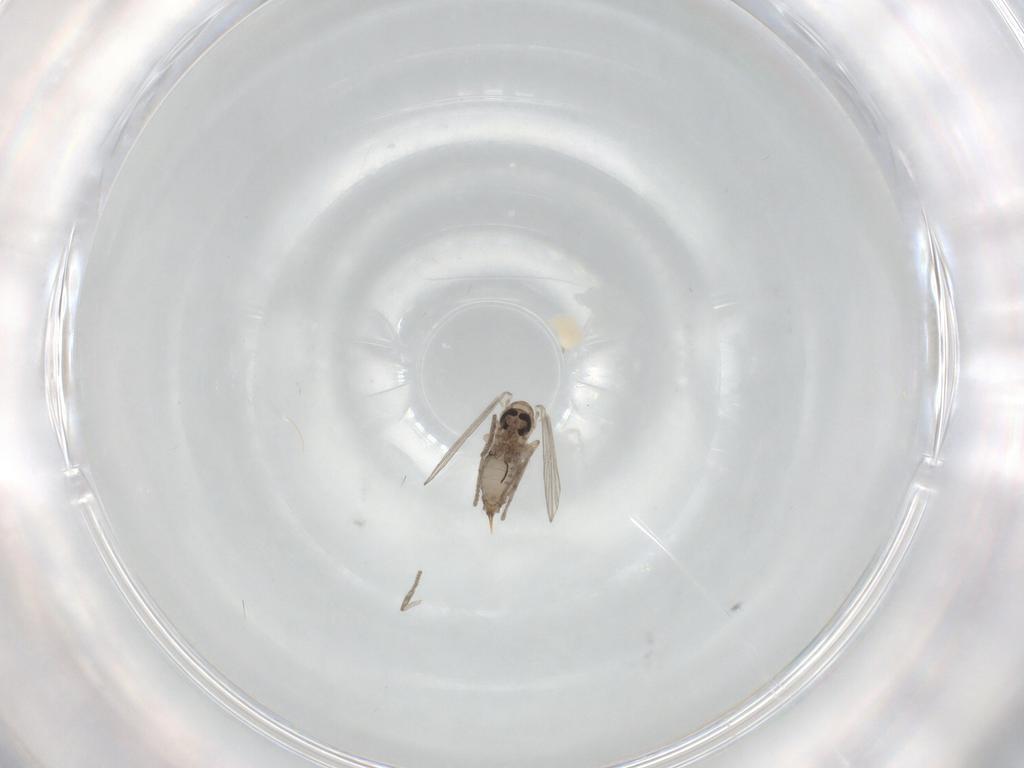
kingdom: Animalia
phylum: Arthropoda
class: Insecta
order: Diptera
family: Psychodidae
